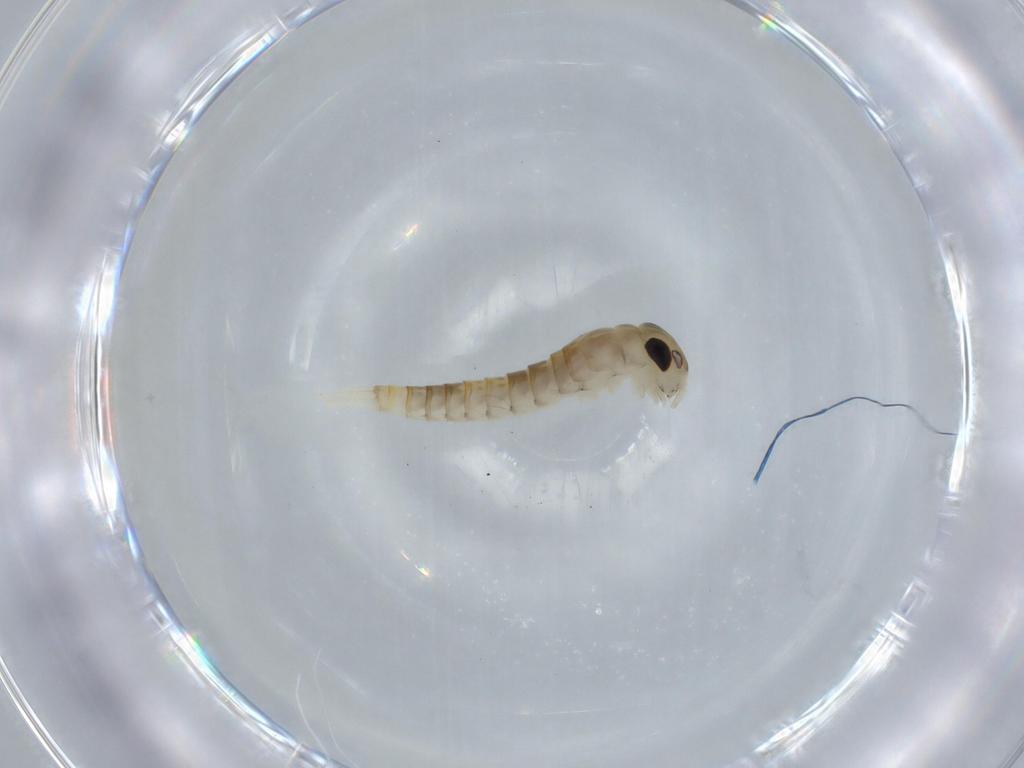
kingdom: Animalia
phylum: Arthropoda
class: Insecta
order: Ephemeroptera
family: Baetidae
